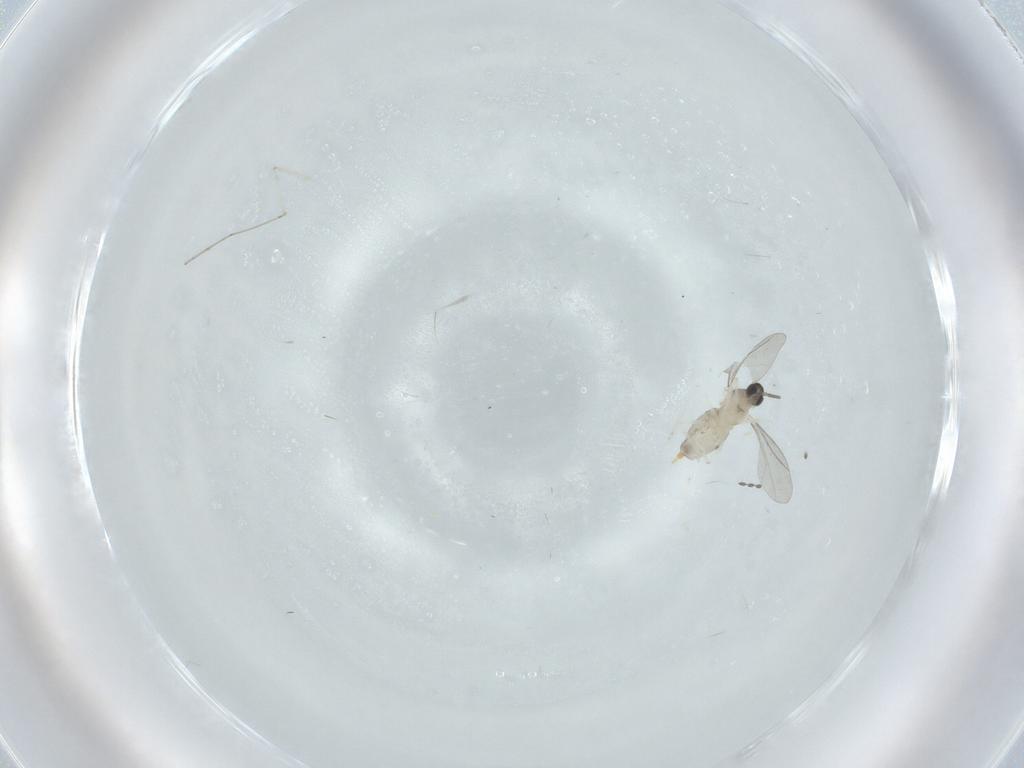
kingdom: Animalia
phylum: Arthropoda
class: Insecta
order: Diptera
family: Cecidomyiidae
